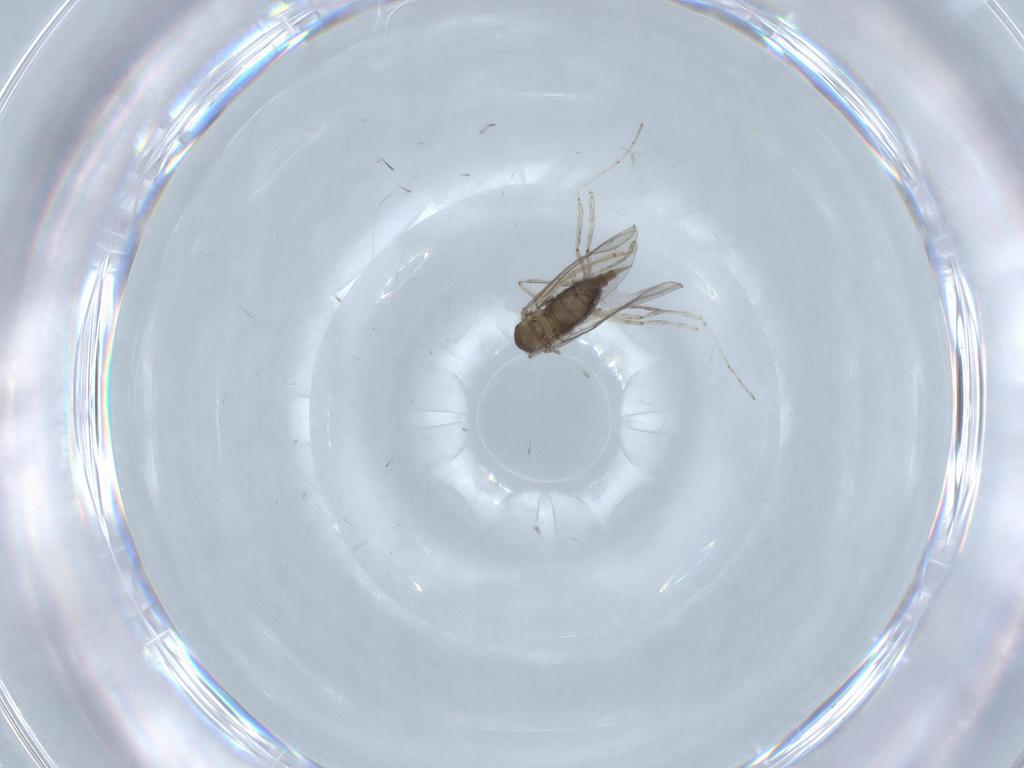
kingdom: Animalia
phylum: Arthropoda
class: Insecta
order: Diptera
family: Cecidomyiidae
